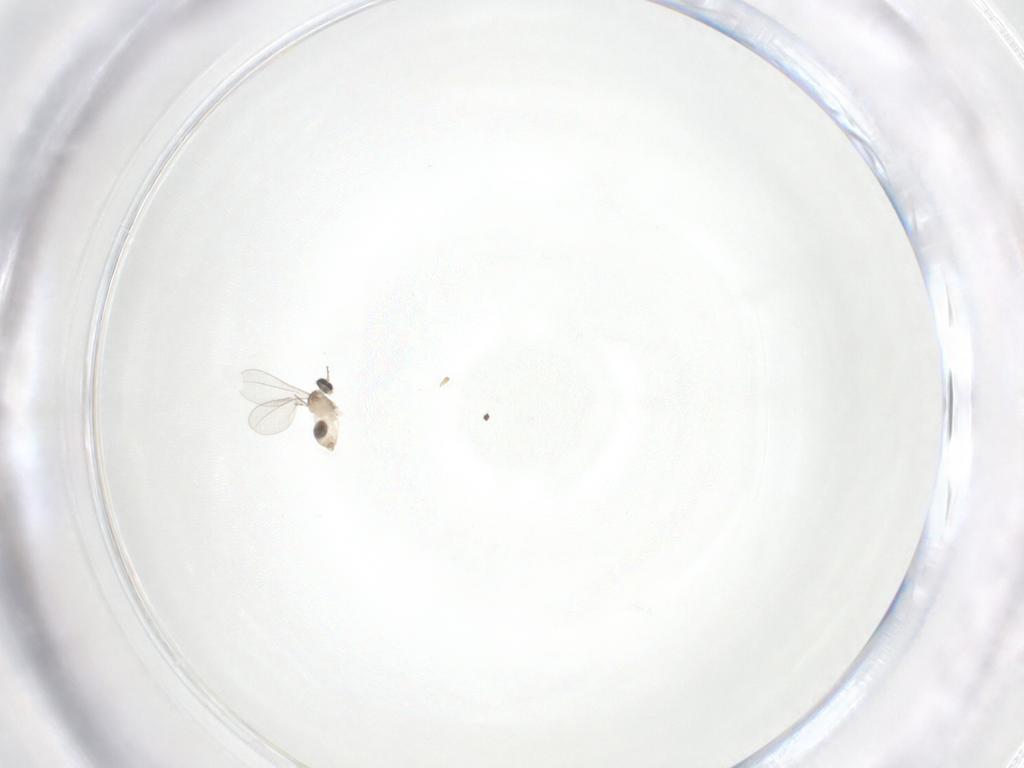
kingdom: Animalia
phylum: Arthropoda
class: Insecta
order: Diptera
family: Cecidomyiidae
